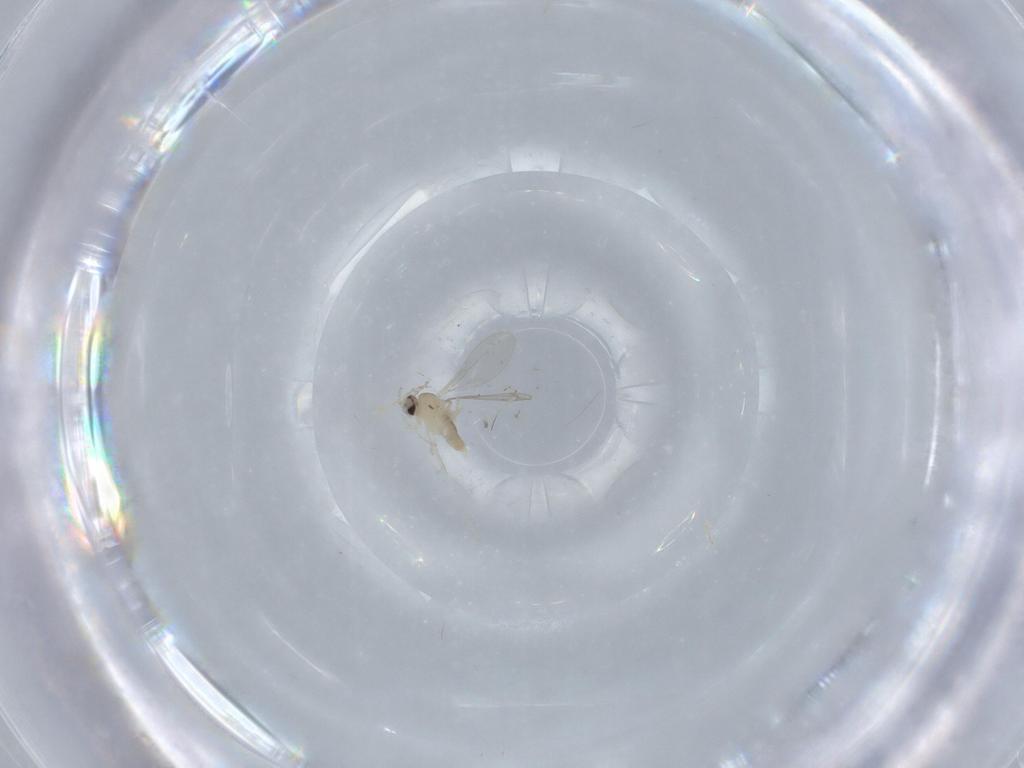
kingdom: Animalia
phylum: Arthropoda
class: Insecta
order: Diptera
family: Cecidomyiidae
